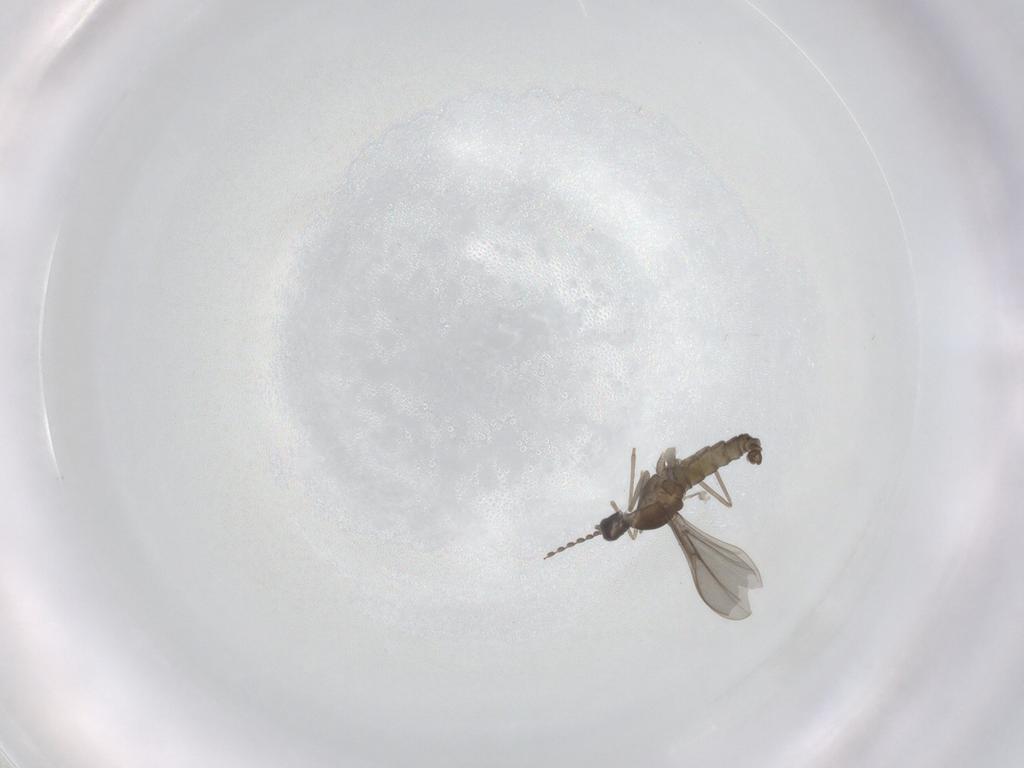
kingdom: Animalia
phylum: Arthropoda
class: Insecta
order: Diptera
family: Cecidomyiidae
